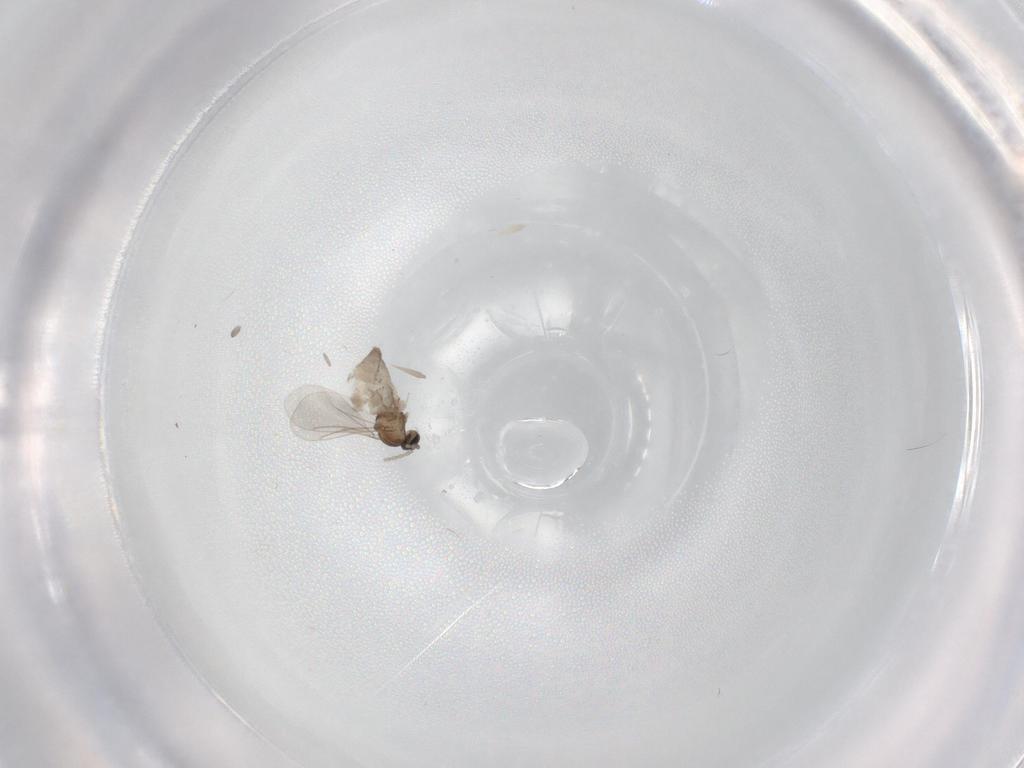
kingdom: Animalia
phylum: Arthropoda
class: Insecta
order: Diptera
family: Cecidomyiidae
